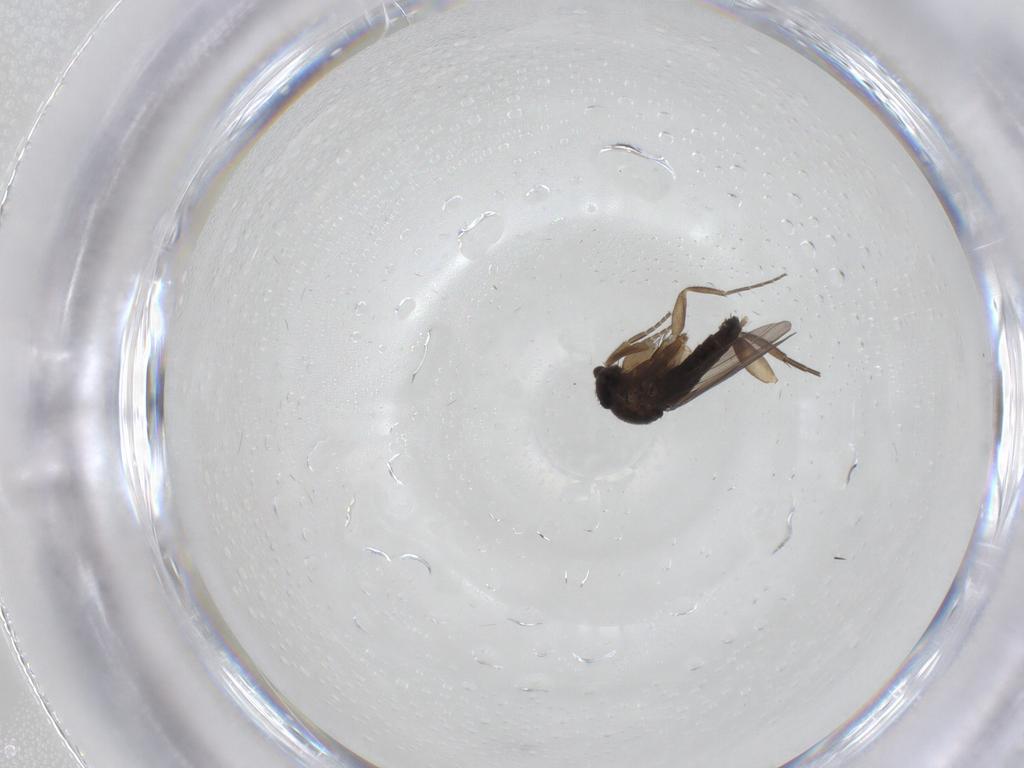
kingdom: Animalia
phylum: Arthropoda
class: Insecta
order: Diptera
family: Phoridae
